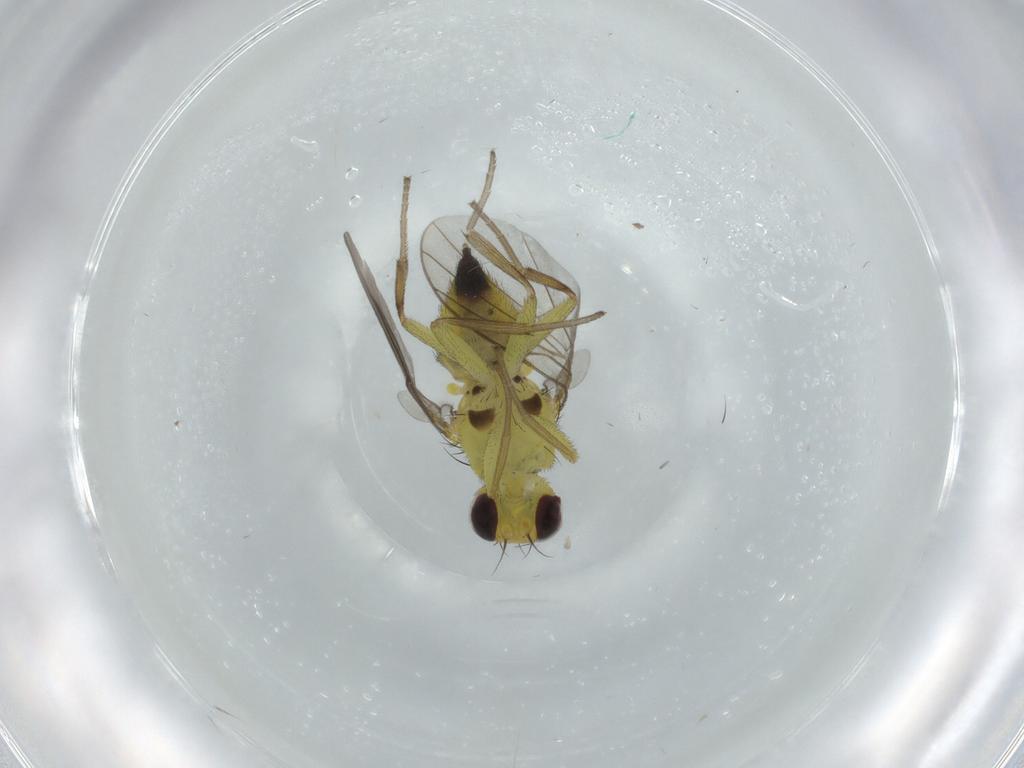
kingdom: Animalia
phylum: Arthropoda
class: Insecta
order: Diptera
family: Agromyzidae
